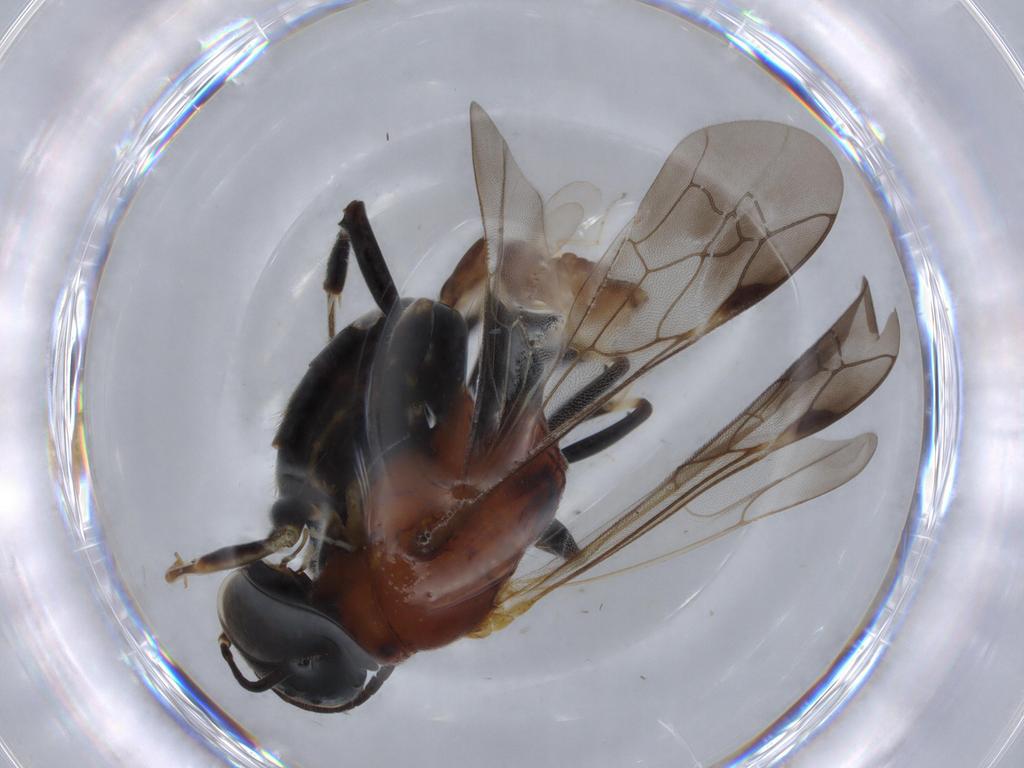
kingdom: Animalia
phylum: Arthropoda
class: Insecta
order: Hymenoptera
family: Bembicidae
